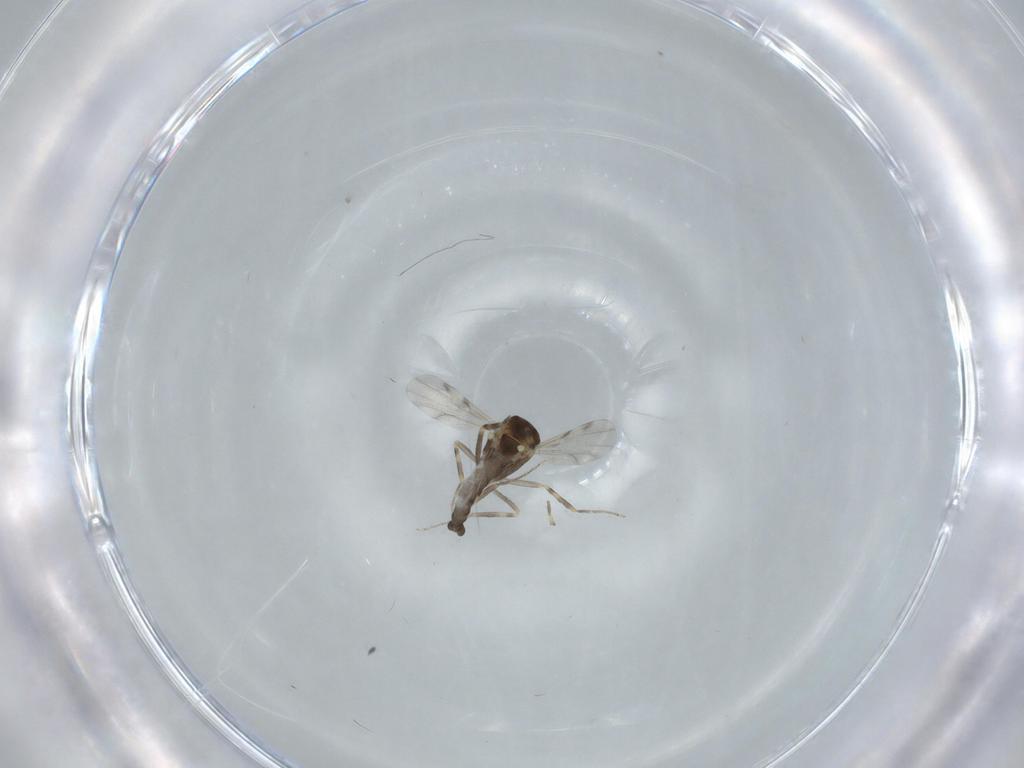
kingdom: Animalia
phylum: Arthropoda
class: Insecta
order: Diptera
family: Ceratopogonidae
